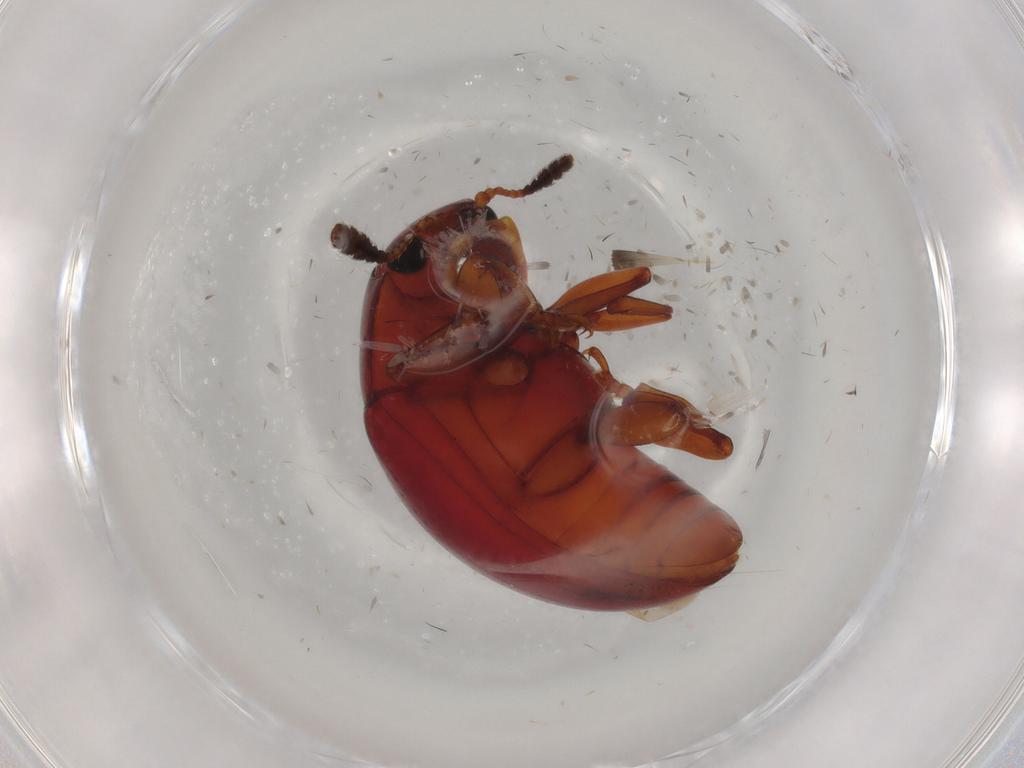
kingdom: Animalia
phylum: Arthropoda
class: Insecta
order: Coleoptera
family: Erotylidae
